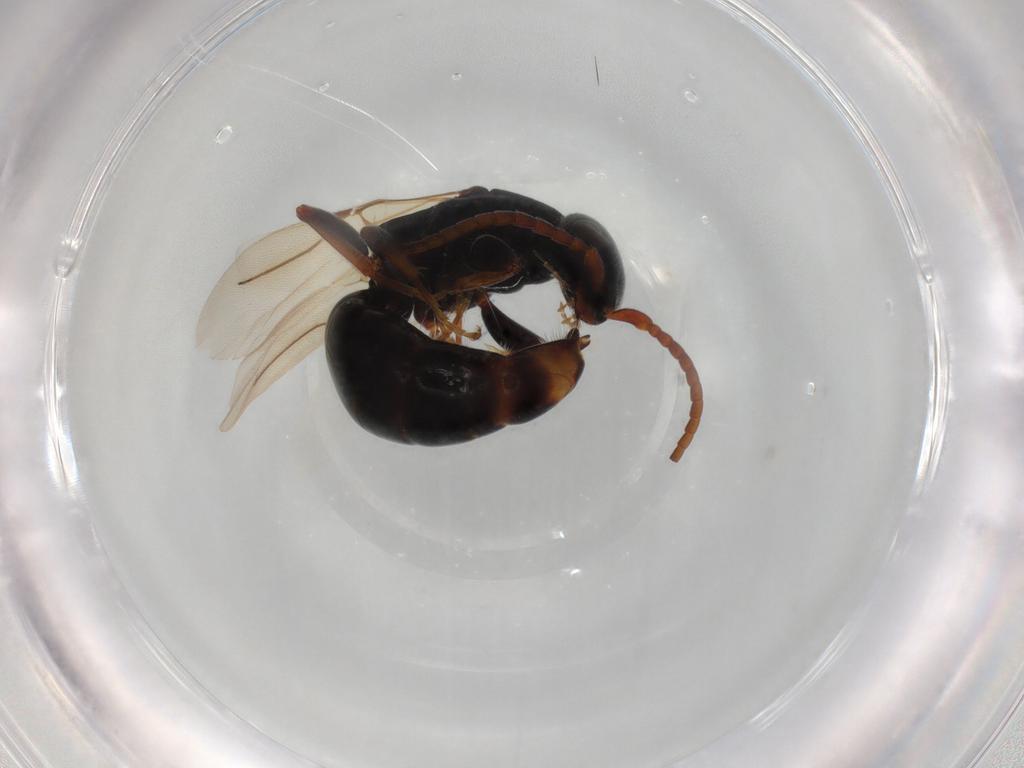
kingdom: Animalia
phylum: Arthropoda
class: Insecta
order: Hymenoptera
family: Bethylidae
